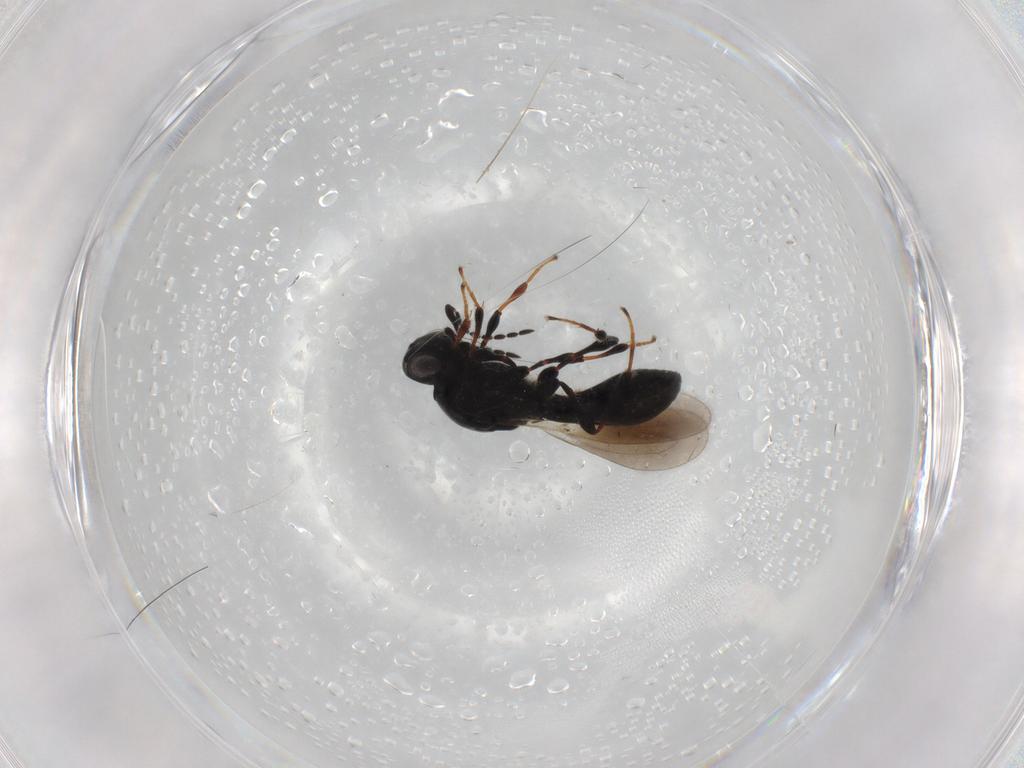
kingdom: Animalia
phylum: Arthropoda
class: Insecta
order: Hymenoptera
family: Platygastridae
